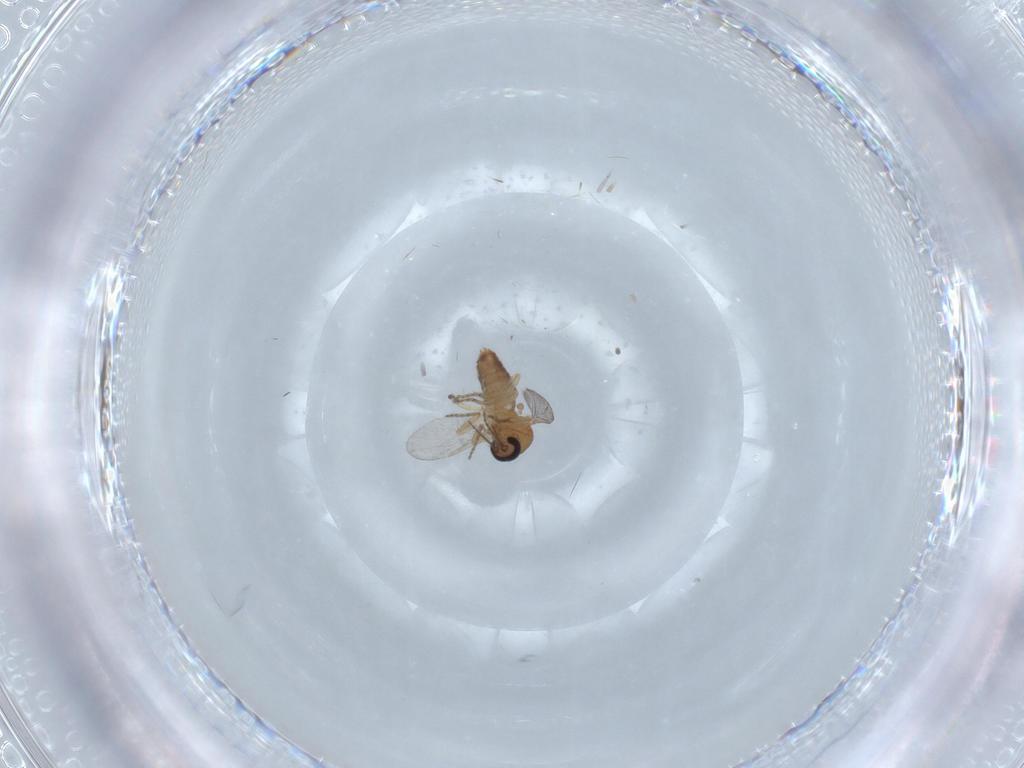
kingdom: Animalia
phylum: Arthropoda
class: Insecta
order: Diptera
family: Ceratopogonidae
